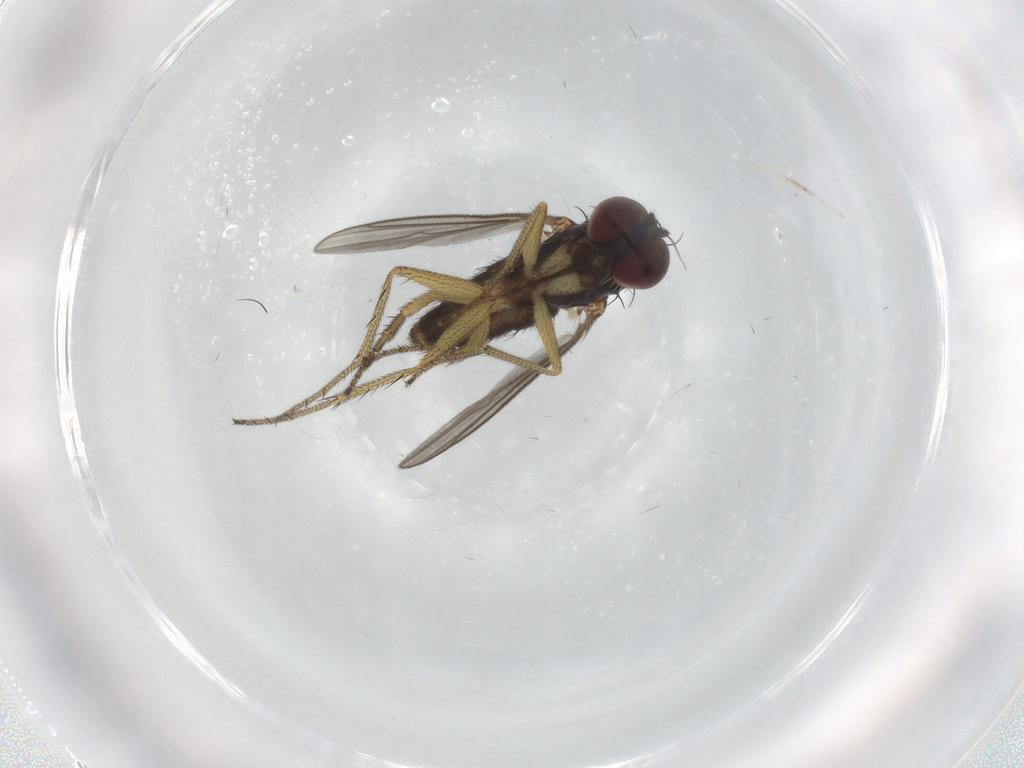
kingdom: Animalia
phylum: Arthropoda
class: Insecta
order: Diptera
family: Dolichopodidae
